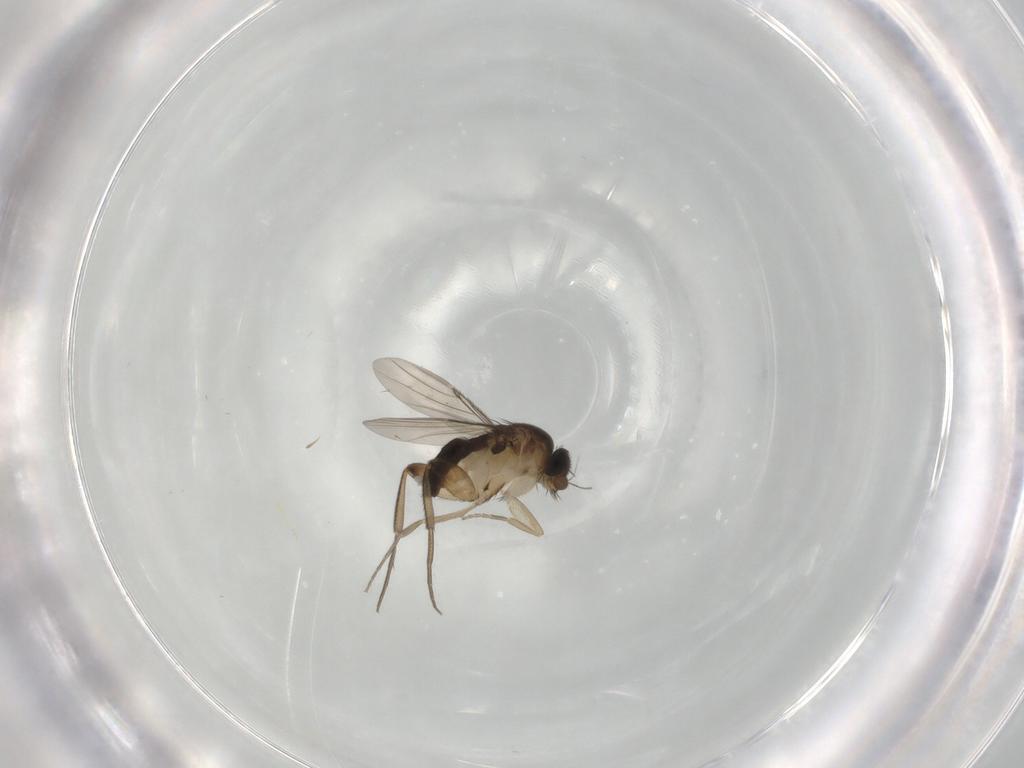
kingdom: Animalia
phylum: Arthropoda
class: Insecta
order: Diptera
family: Phoridae
